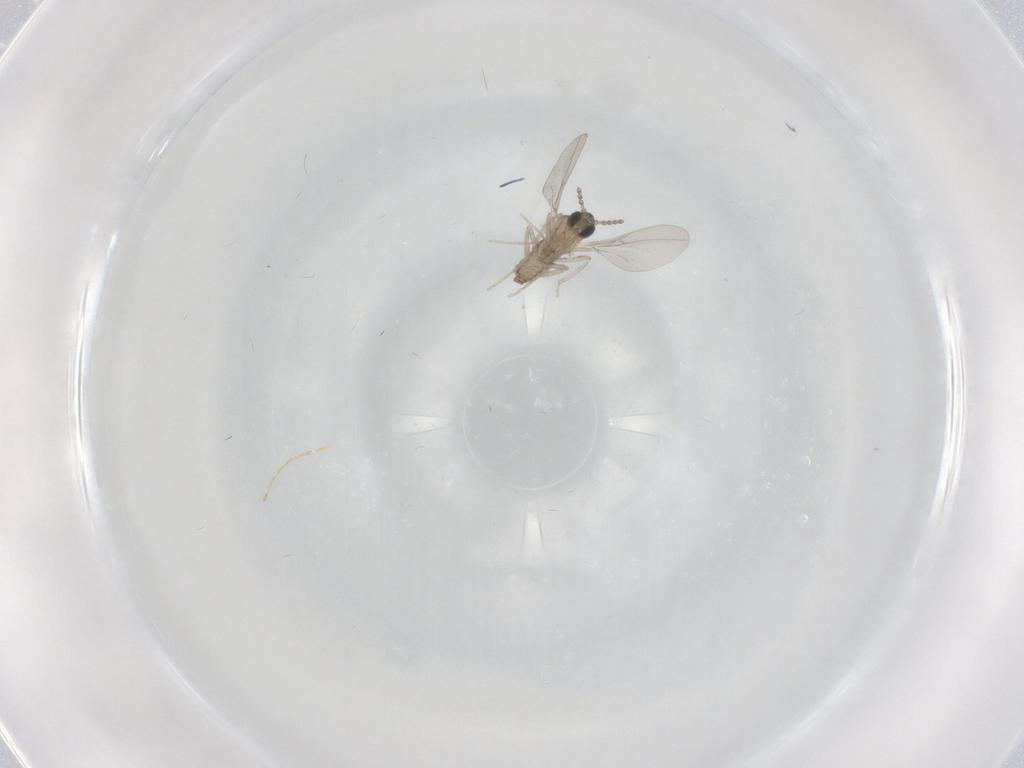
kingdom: Animalia
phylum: Arthropoda
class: Insecta
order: Diptera
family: Cecidomyiidae
